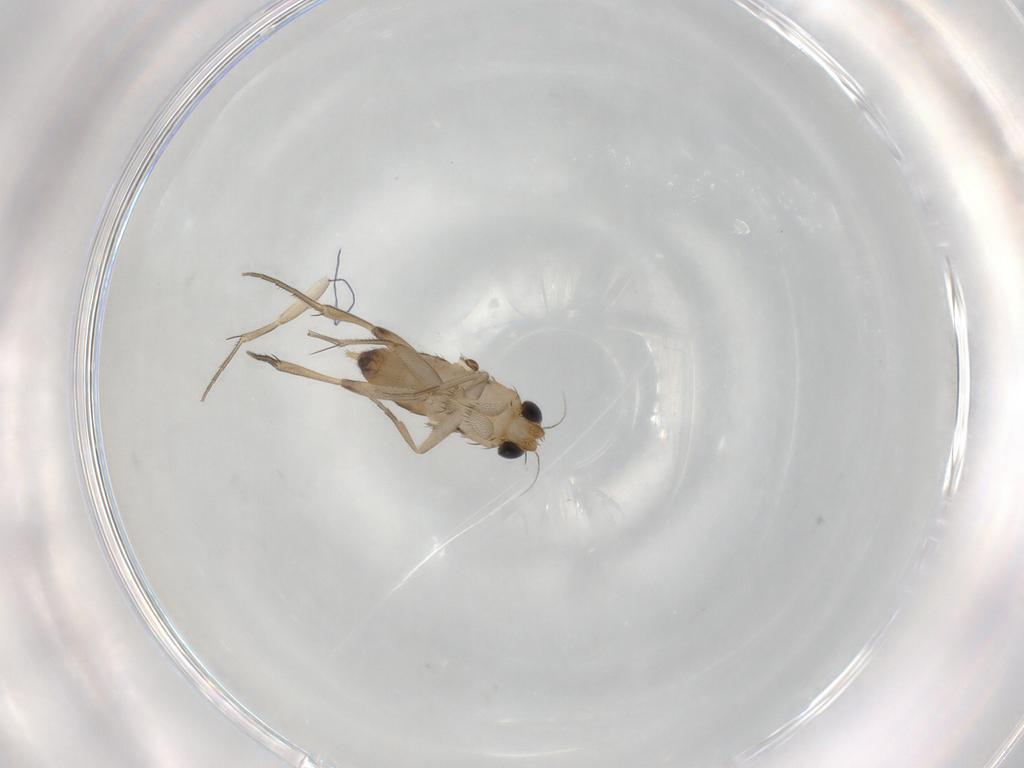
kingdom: Animalia
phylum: Arthropoda
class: Insecta
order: Diptera
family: Phoridae
